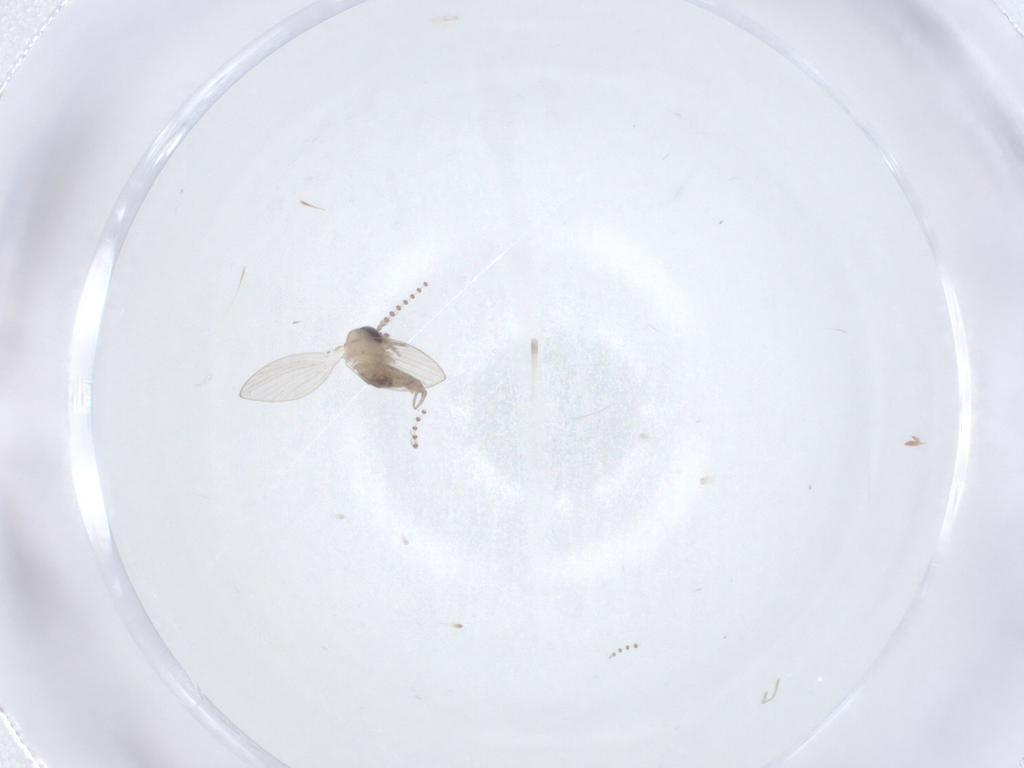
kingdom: Animalia
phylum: Arthropoda
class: Insecta
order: Diptera
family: Psychodidae
